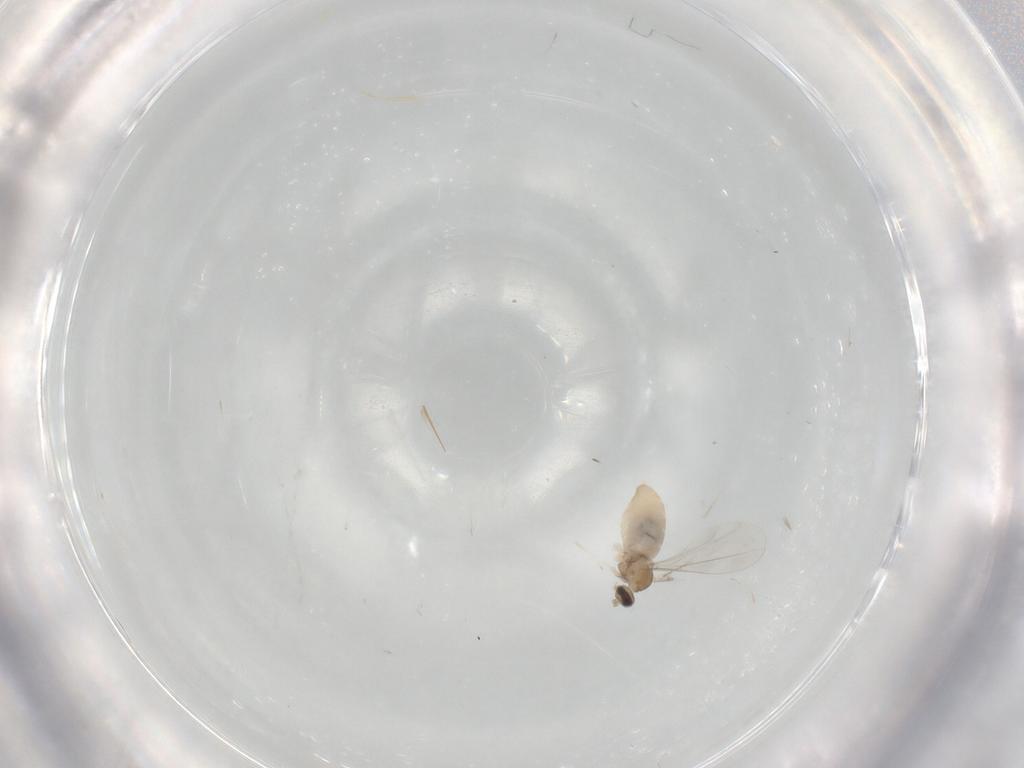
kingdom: Animalia
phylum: Arthropoda
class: Insecta
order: Diptera
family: Cecidomyiidae
